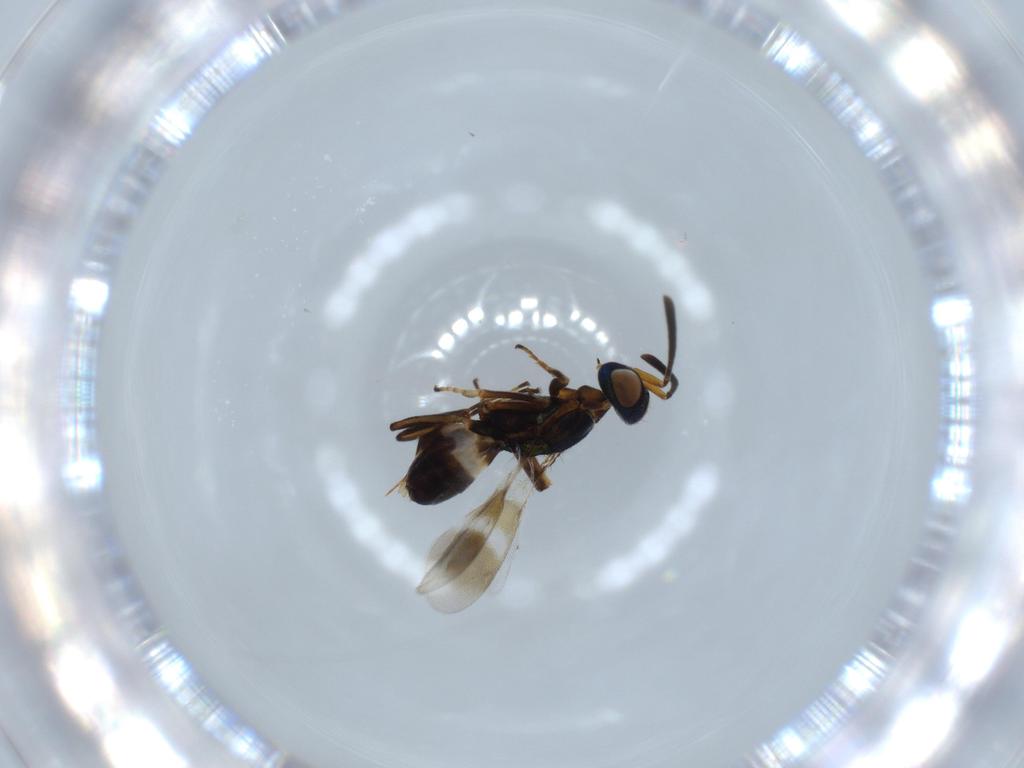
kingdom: Animalia
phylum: Arthropoda
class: Insecta
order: Hymenoptera
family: Eupelmidae
